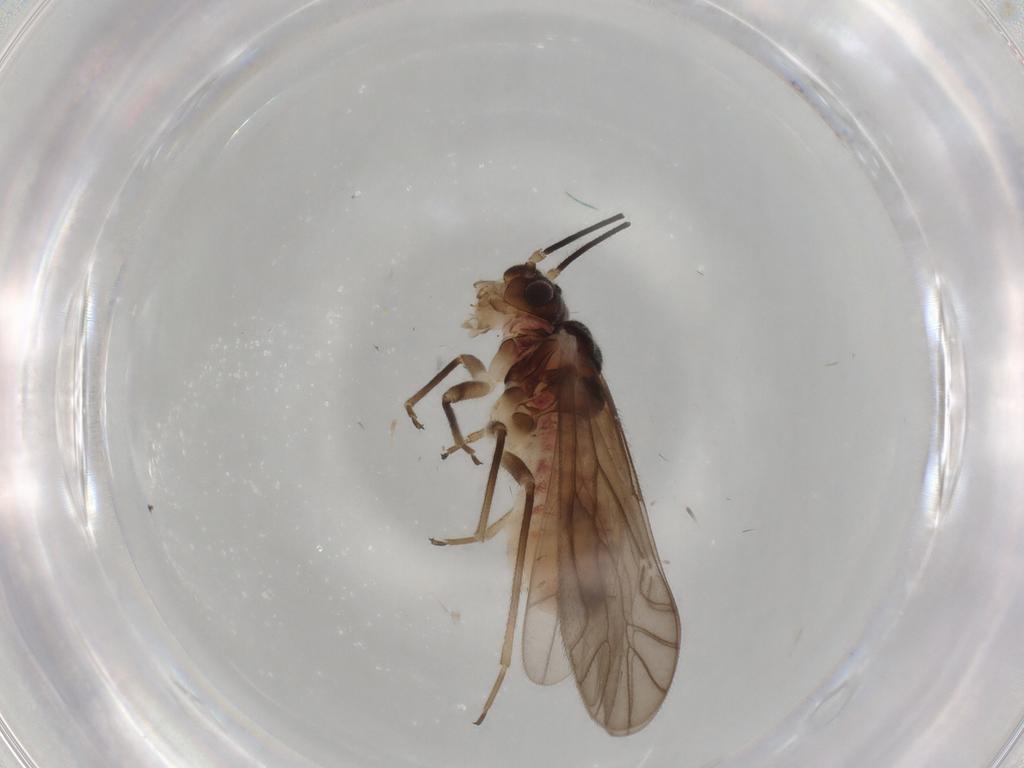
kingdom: Animalia
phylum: Arthropoda
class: Insecta
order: Psocodea
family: Caeciliusidae
